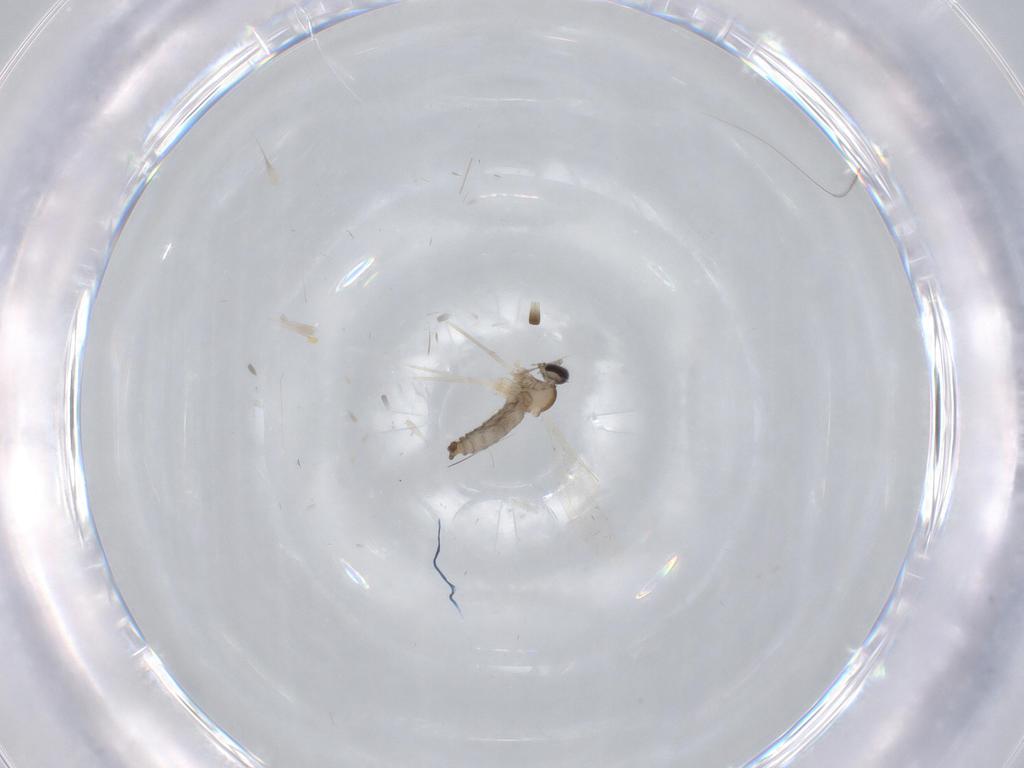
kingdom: Animalia
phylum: Arthropoda
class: Insecta
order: Diptera
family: Cecidomyiidae
